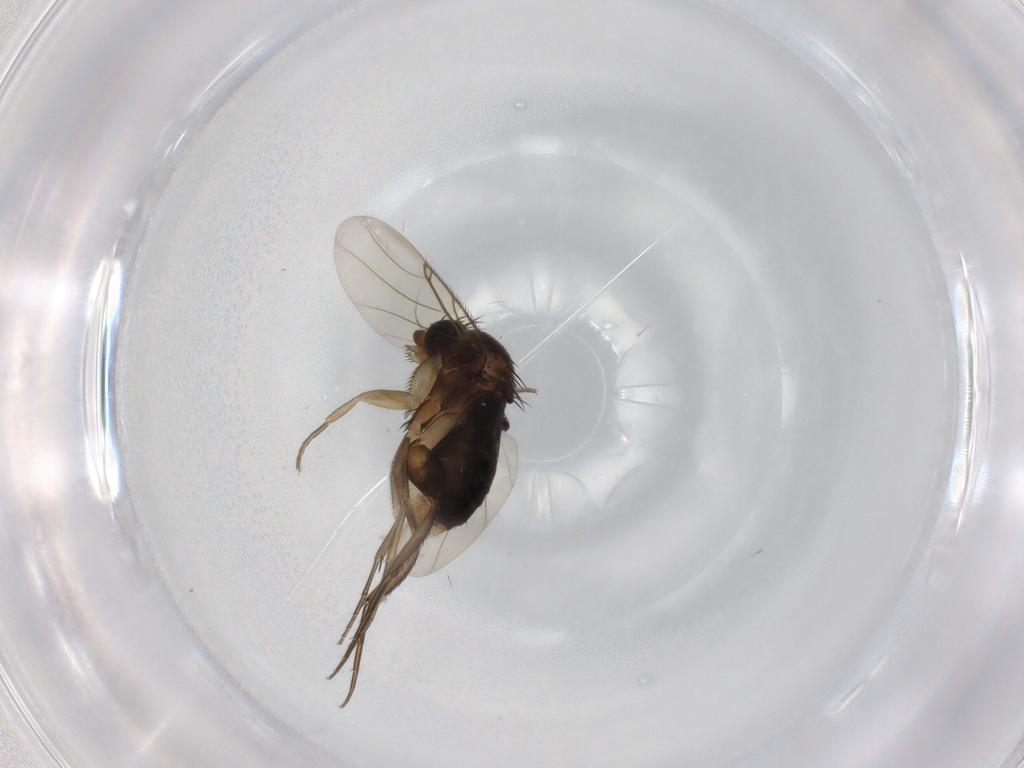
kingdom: Animalia
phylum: Arthropoda
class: Insecta
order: Diptera
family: Phoridae
